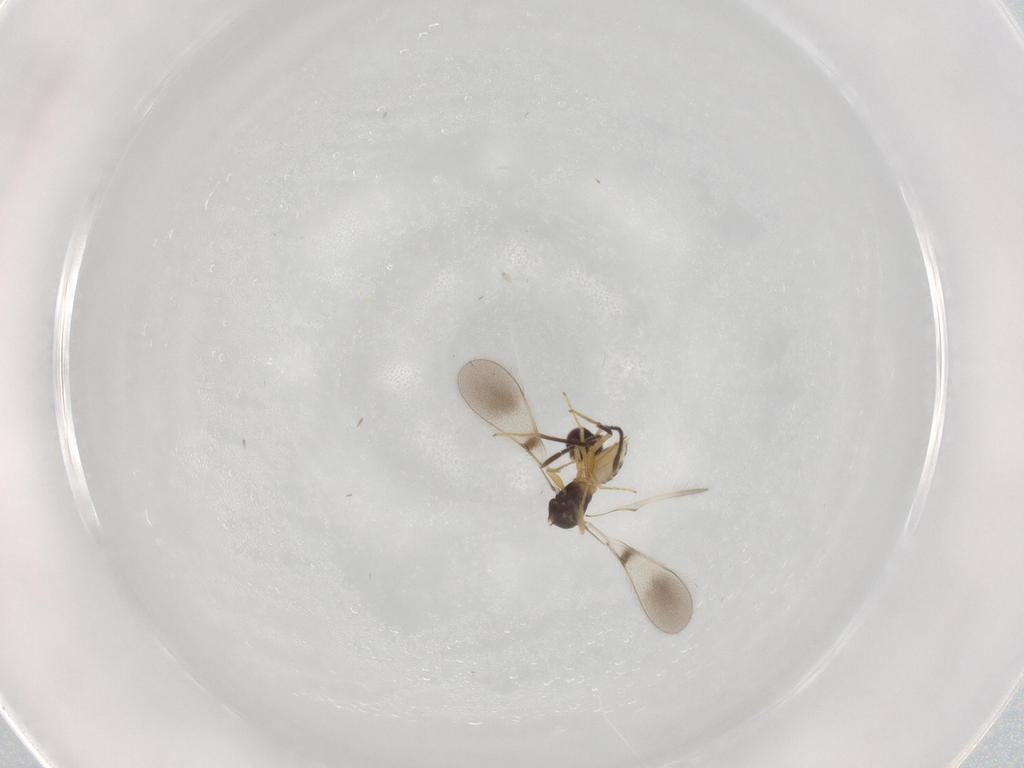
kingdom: Animalia
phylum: Arthropoda
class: Insecta
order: Hymenoptera
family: Mymaridae
